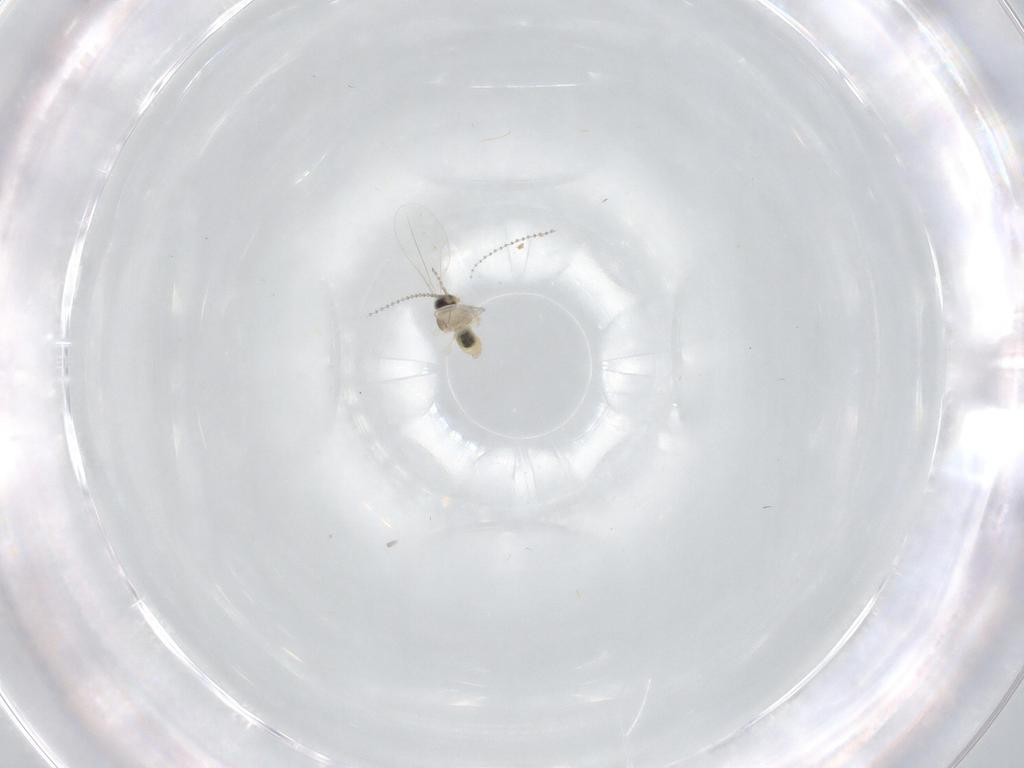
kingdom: Animalia
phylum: Arthropoda
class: Insecta
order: Diptera
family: Cecidomyiidae
